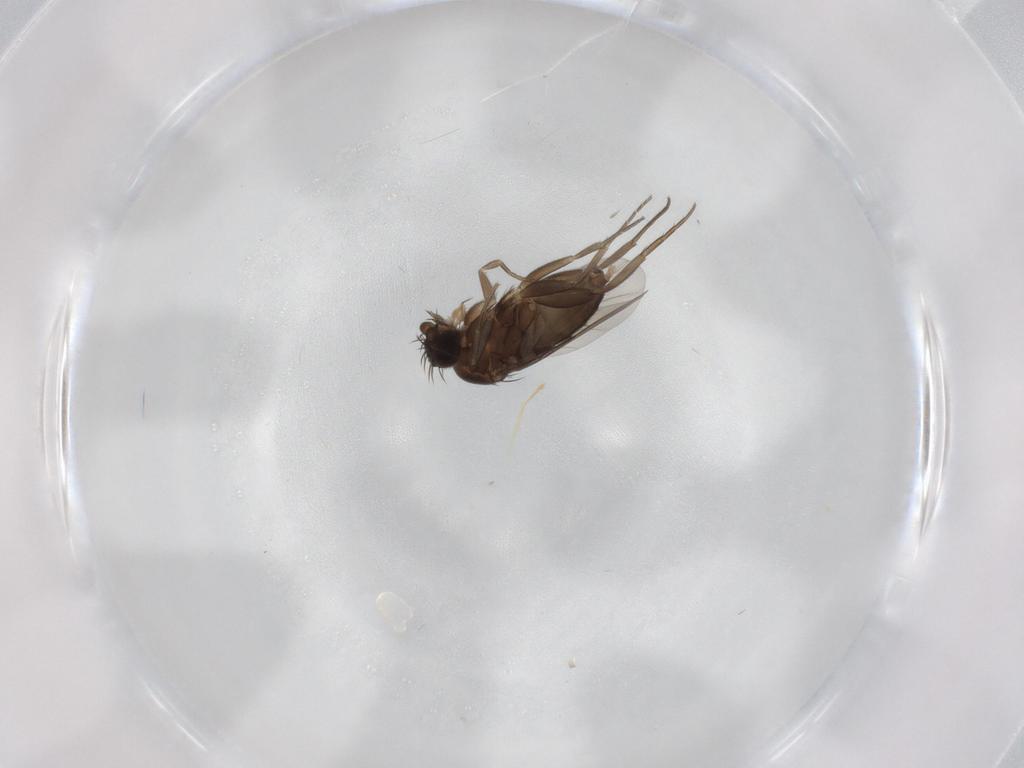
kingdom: Animalia
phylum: Arthropoda
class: Insecta
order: Diptera
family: Phoridae
